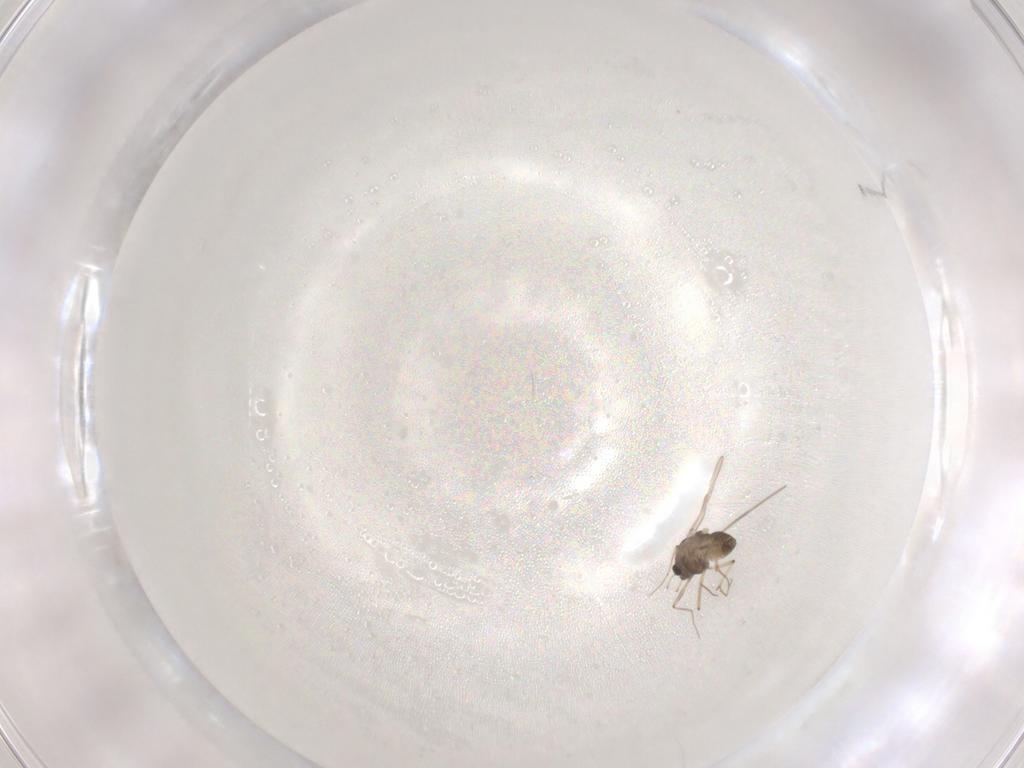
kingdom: Animalia
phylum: Arthropoda
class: Insecta
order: Diptera
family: Chironomidae
